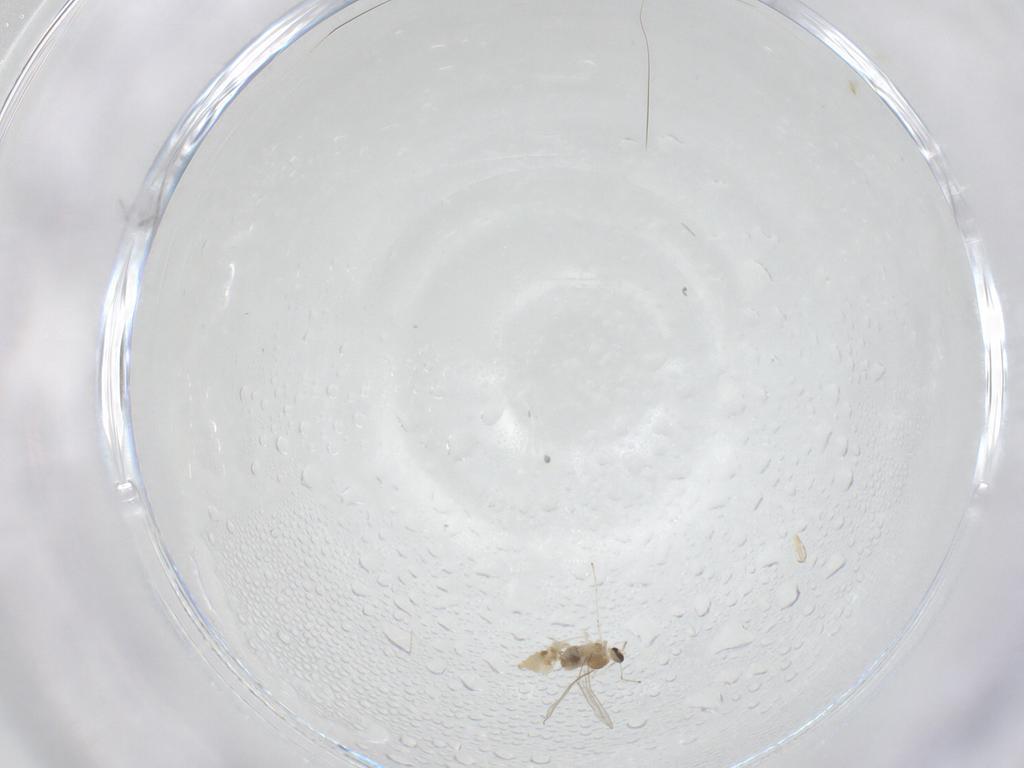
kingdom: Animalia
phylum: Arthropoda
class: Insecta
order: Diptera
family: Cecidomyiidae
